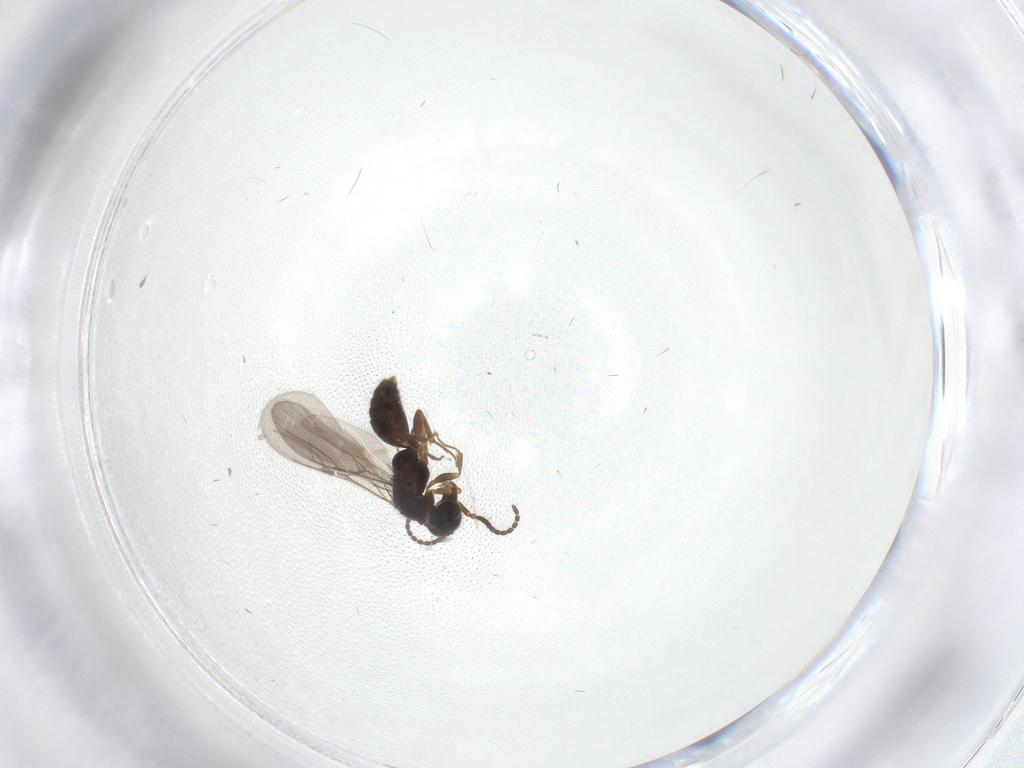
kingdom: Animalia
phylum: Arthropoda
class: Insecta
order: Hymenoptera
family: Bethylidae
